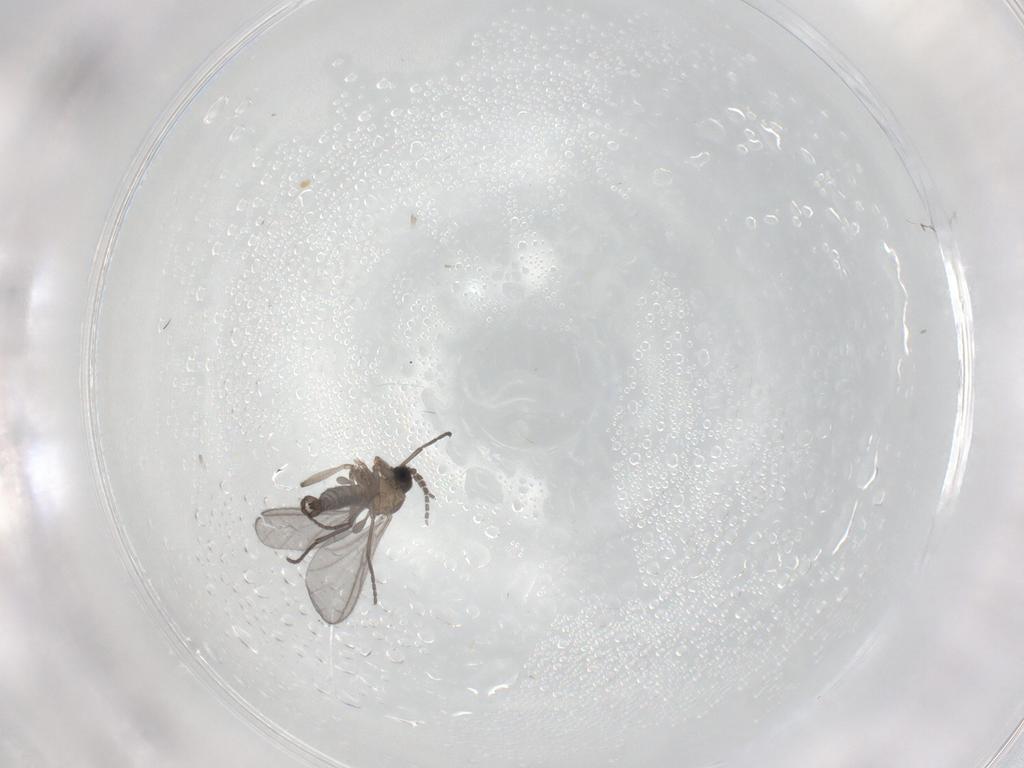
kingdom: Animalia
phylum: Arthropoda
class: Insecta
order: Diptera
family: Sciaridae
